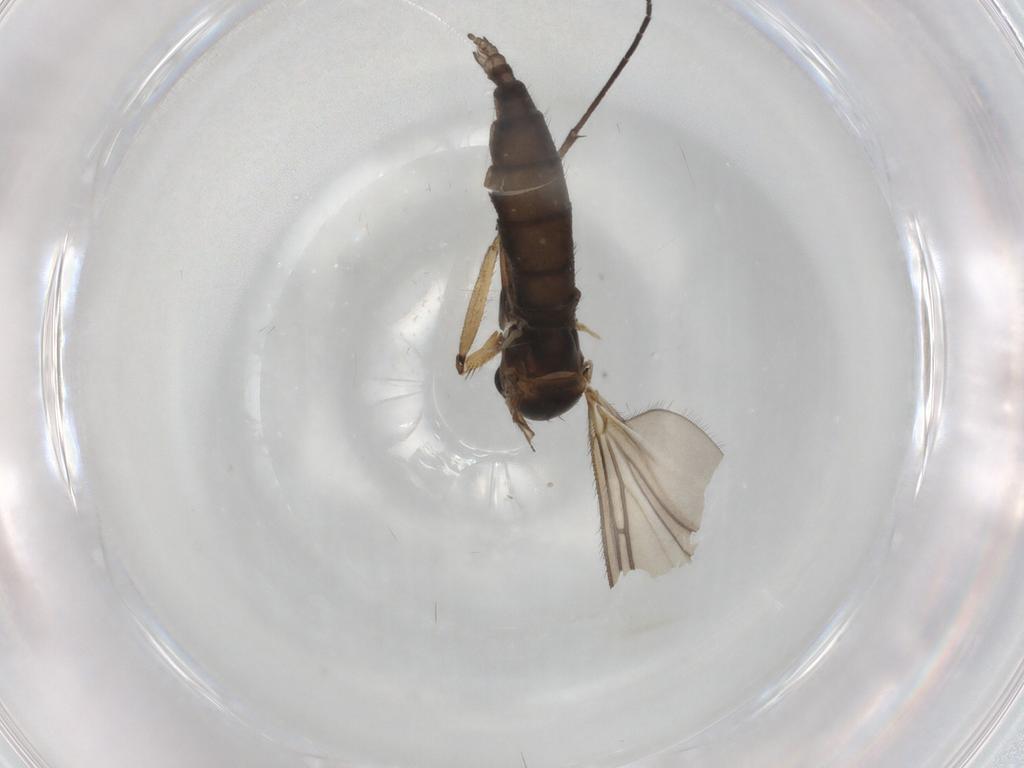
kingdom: Animalia
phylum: Arthropoda
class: Insecta
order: Diptera
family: Sciaridae
